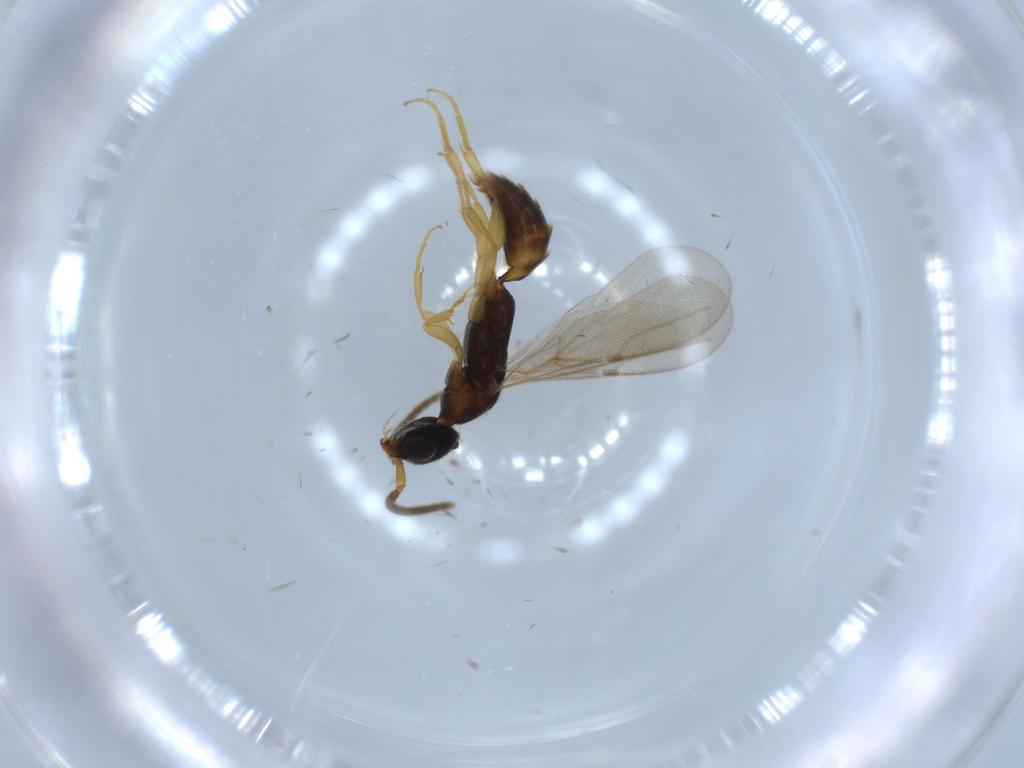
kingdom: Animalia
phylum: Arthropoda
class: Insecta
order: Hymenoptera
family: Bethylidae
